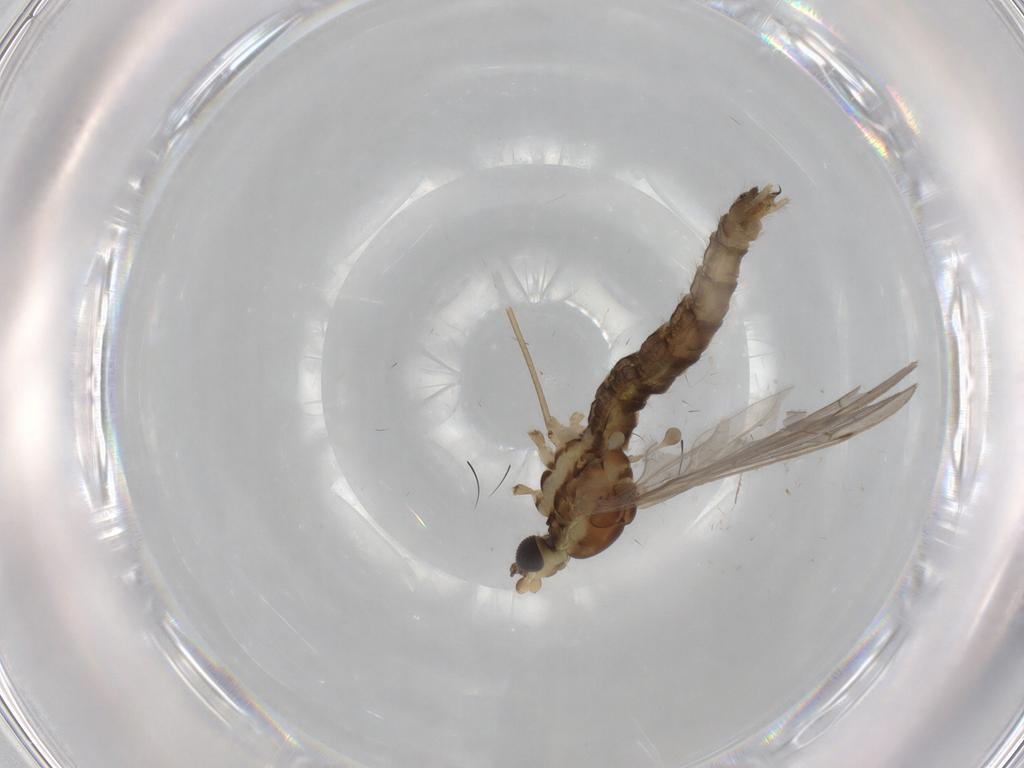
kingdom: Animalia
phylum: Arthropoda
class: Insecta
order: Diptera
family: Dolichopodidae
